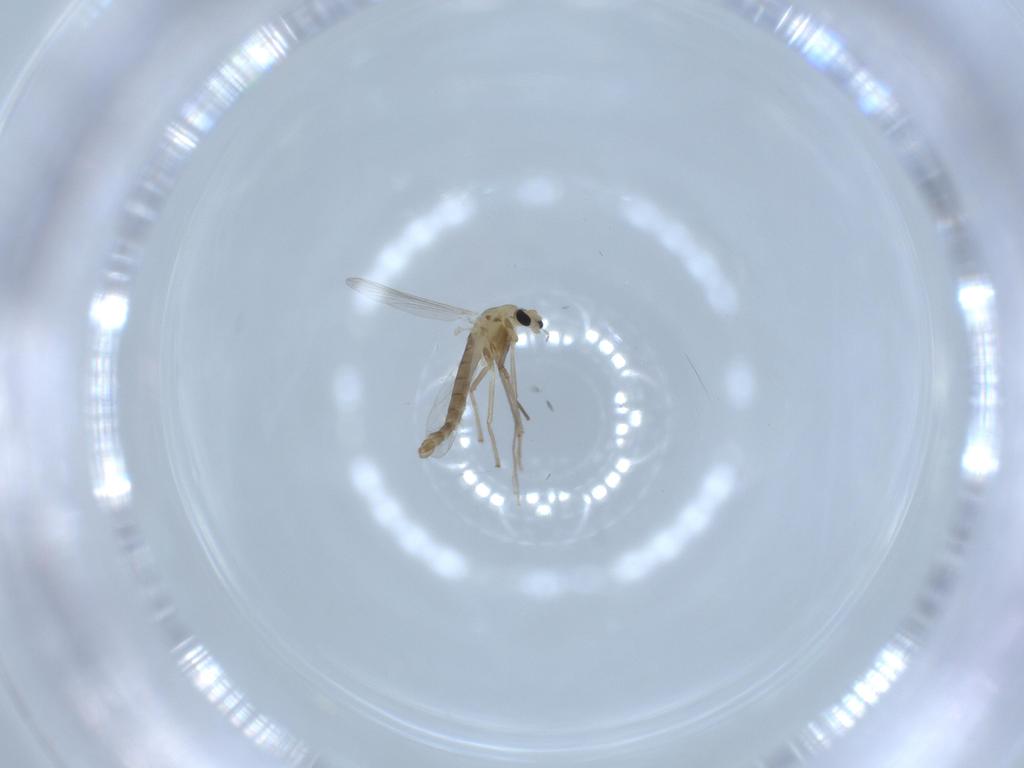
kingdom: Animalia
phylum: Arthropoda
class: Insecta
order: Diptera
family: Chironomidae
